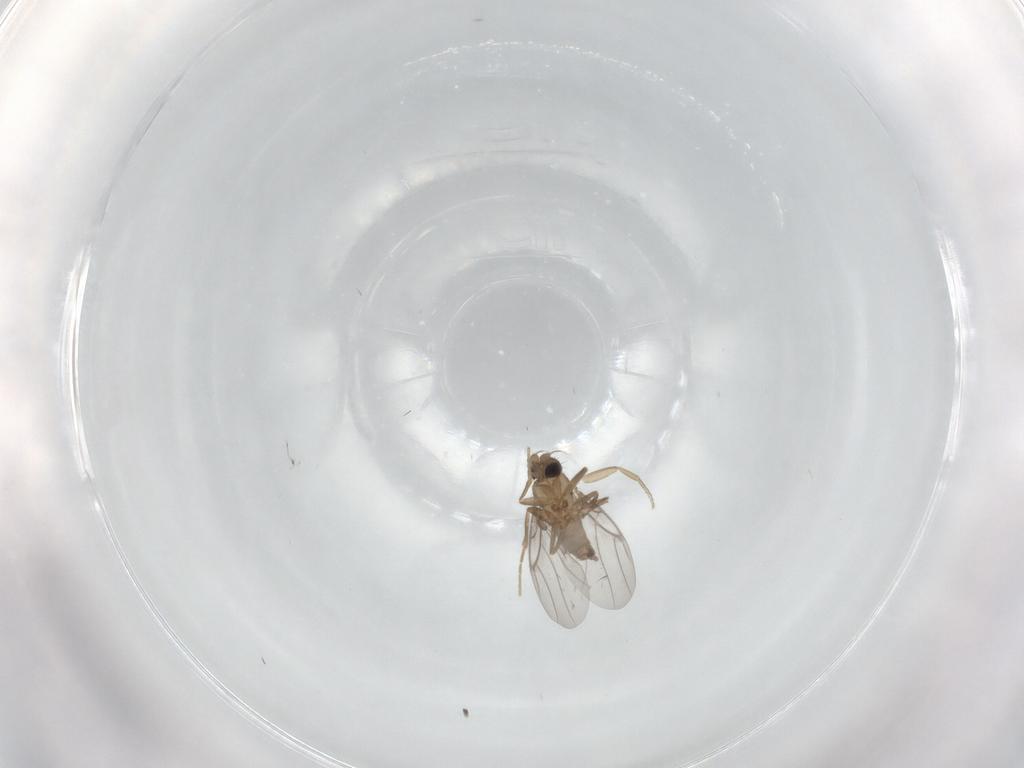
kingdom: Animalia
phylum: Arthropoda
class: Insecta
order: Diptera
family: Dolichopodidae
